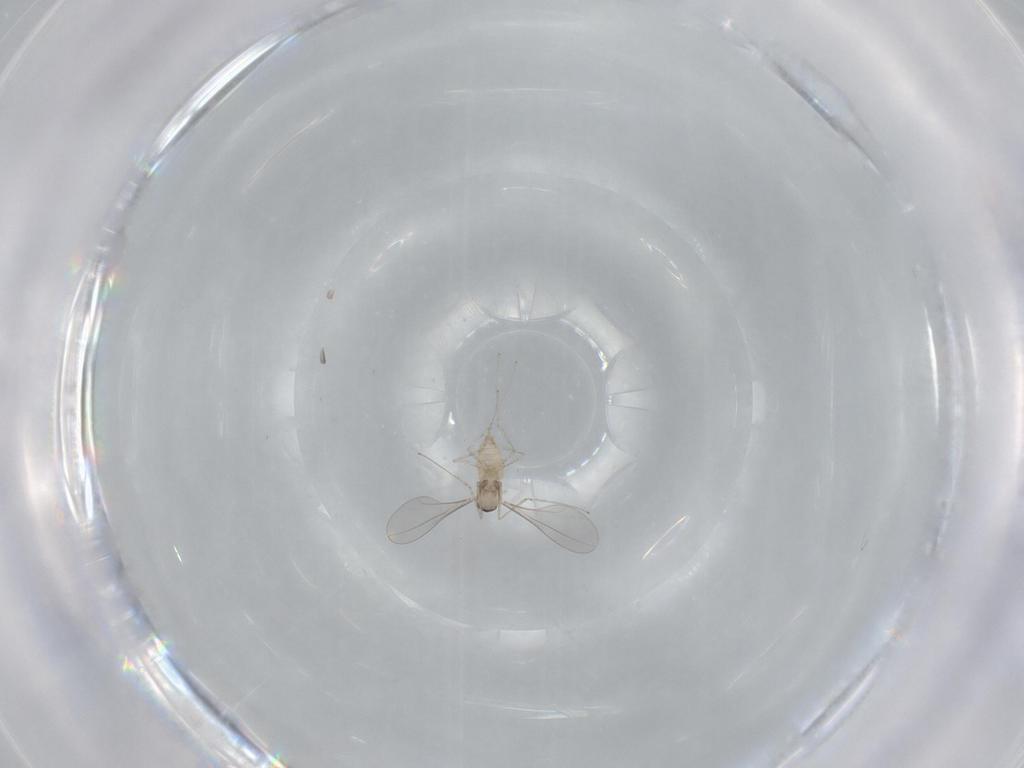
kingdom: Animalia
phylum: Arthropoda
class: Insecta
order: Diptera
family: Cecidomyiidae
